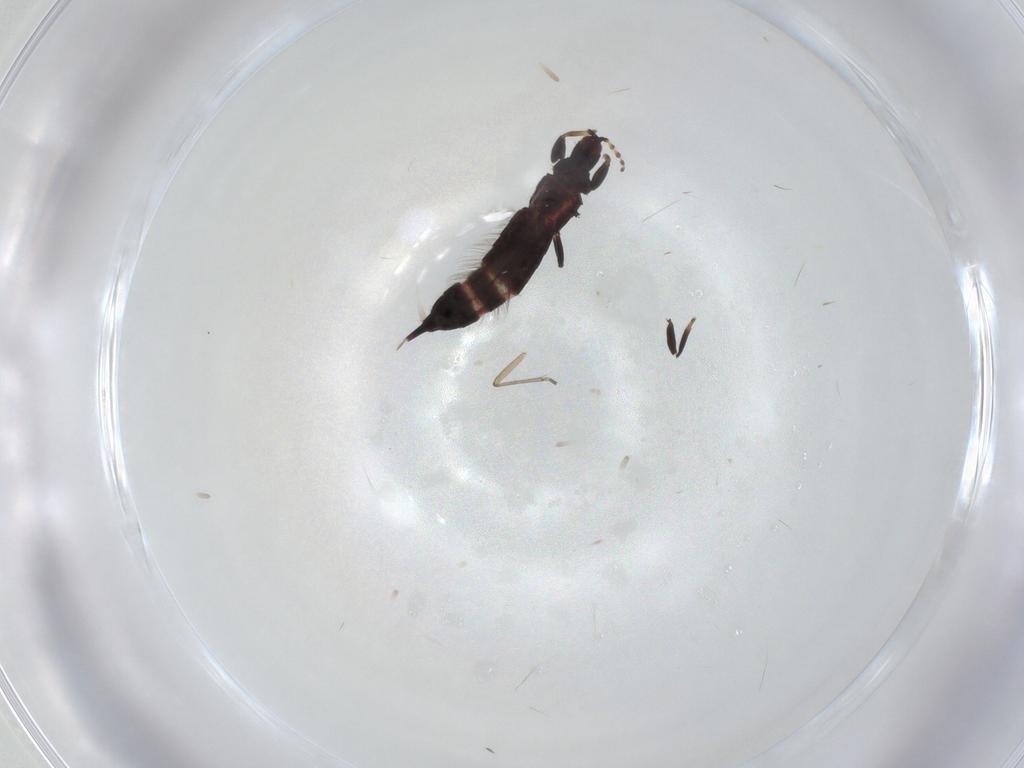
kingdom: Animalia
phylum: Arthropoda
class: Insecta
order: Thysanoptera
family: Phlaeothripidae
